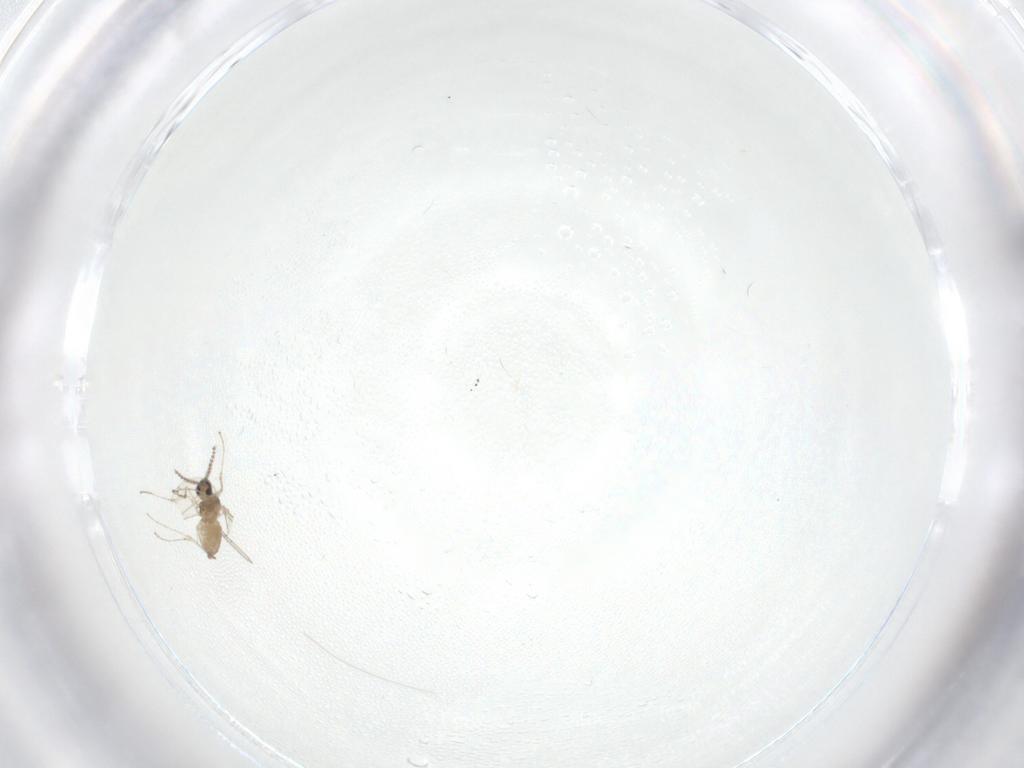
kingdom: Animalia
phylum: Arthropoda
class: Insecta
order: Diptera
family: Cecidomyiidae
